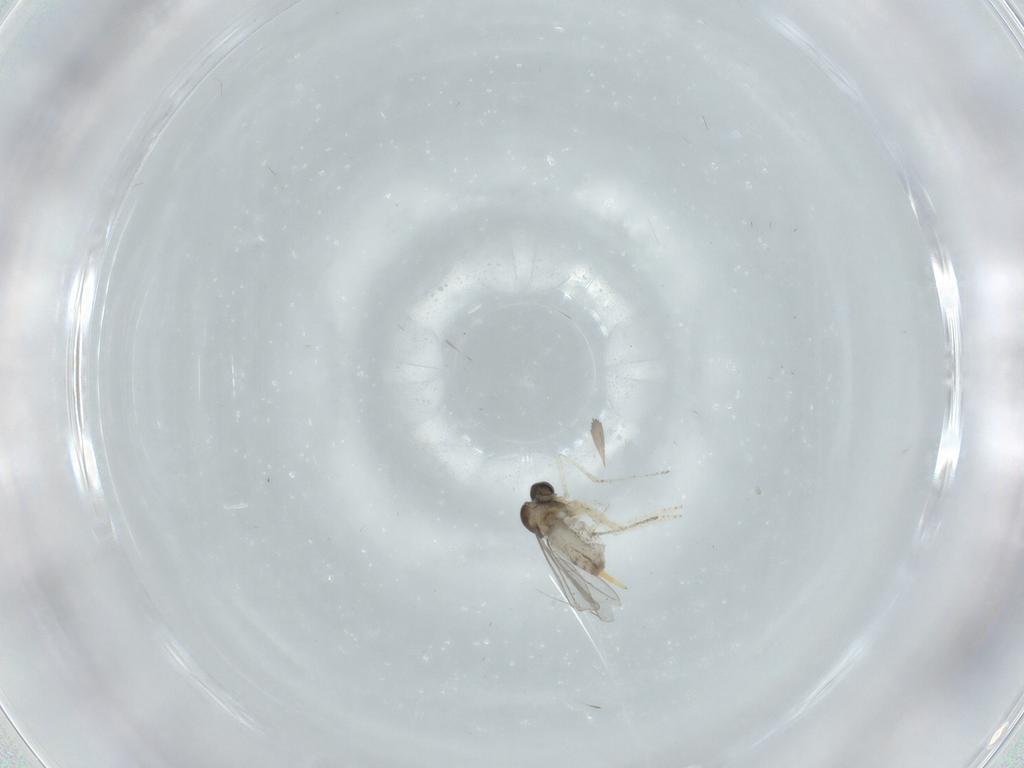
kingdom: Animalia
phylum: Arthropoda
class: Insecta
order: Diptera
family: Cecidomyiidae
